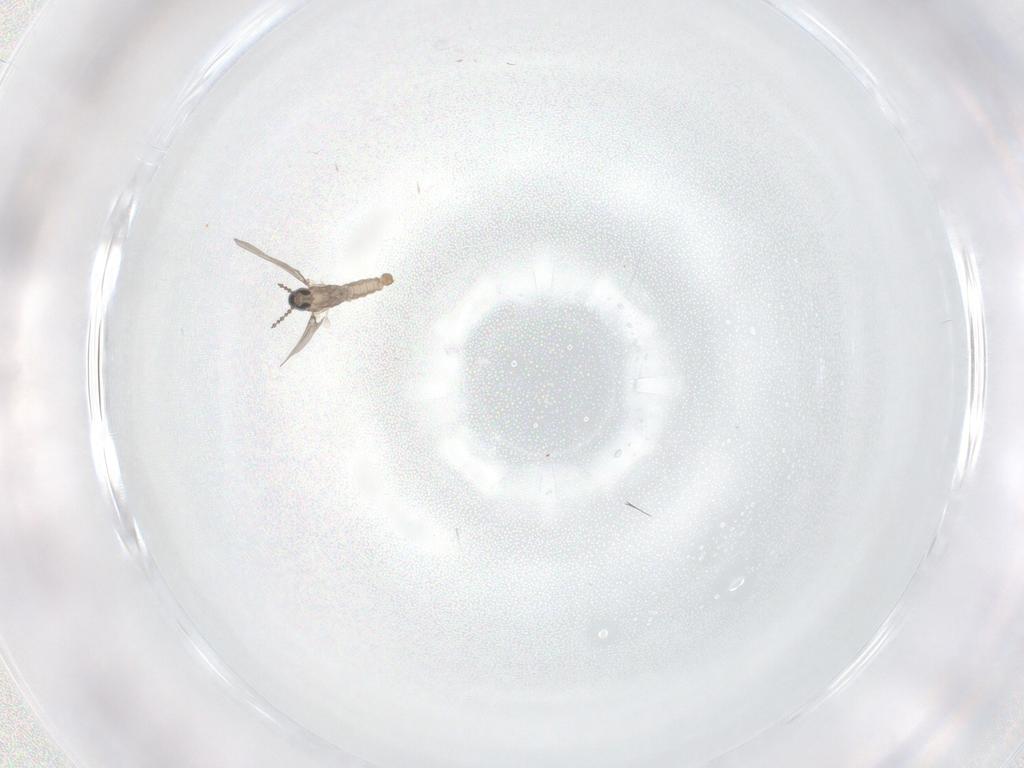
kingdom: Animalia
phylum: Arthropoda
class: Insecta
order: Diptera
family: Cecidomyiidae
